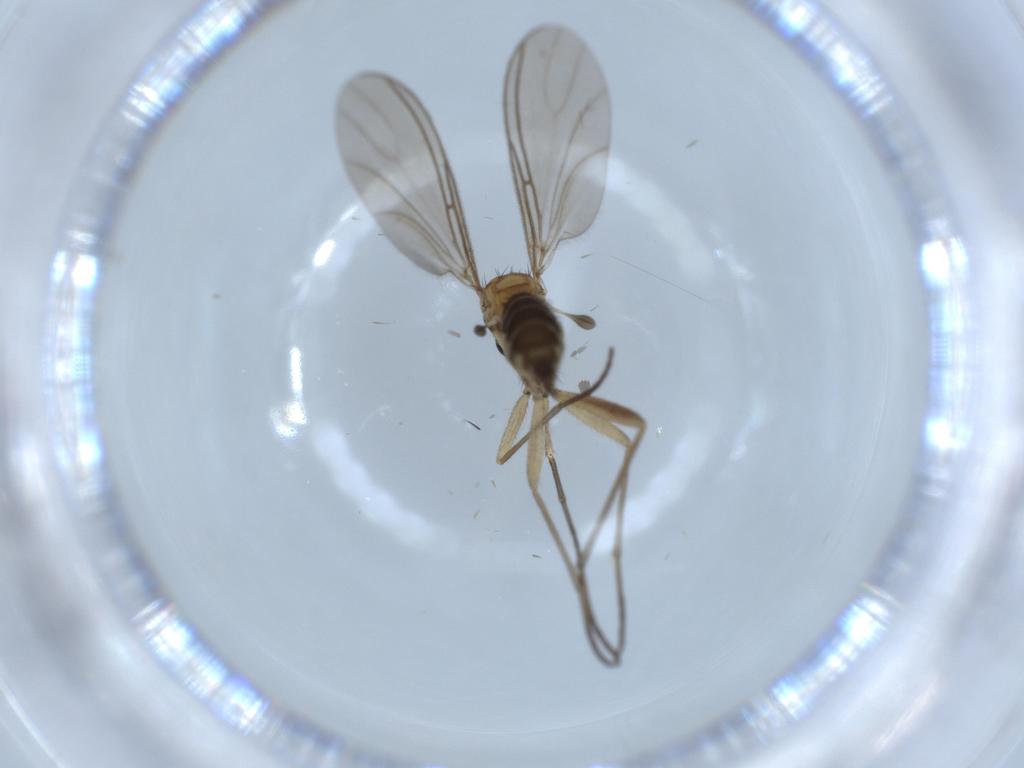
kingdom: Animalia
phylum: Arthropoda
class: Insecta
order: Diptera
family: Sciaridae
